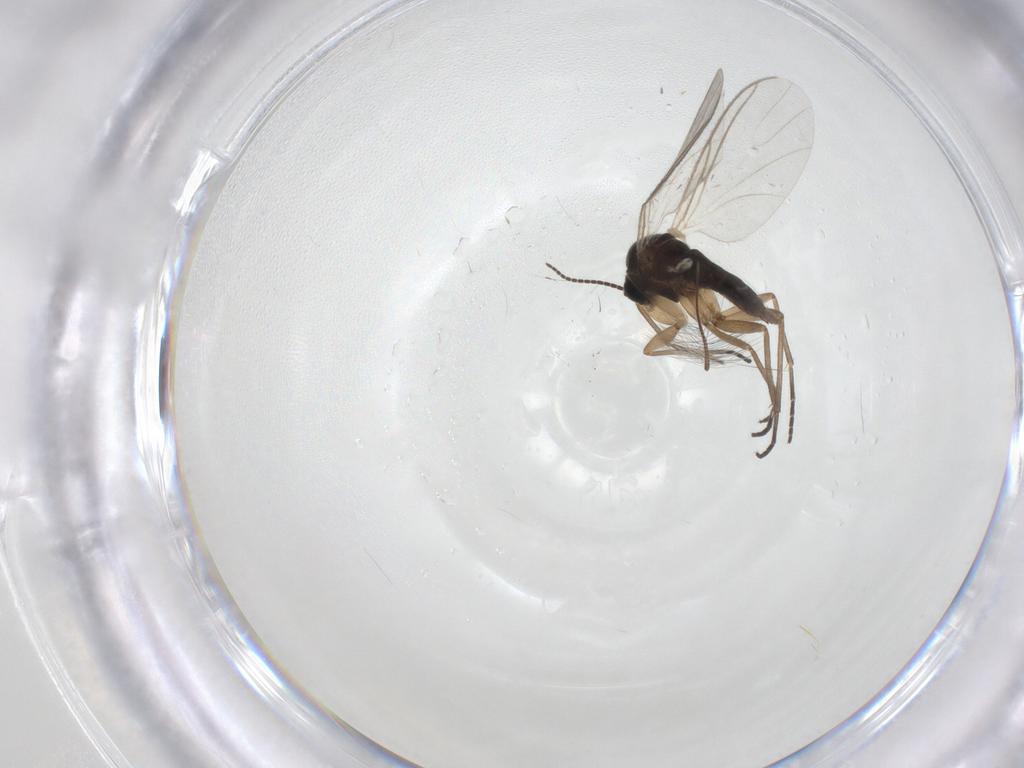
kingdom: Animalia
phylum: Arthropoda
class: Insecta
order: Diptera
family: Sciaridae
